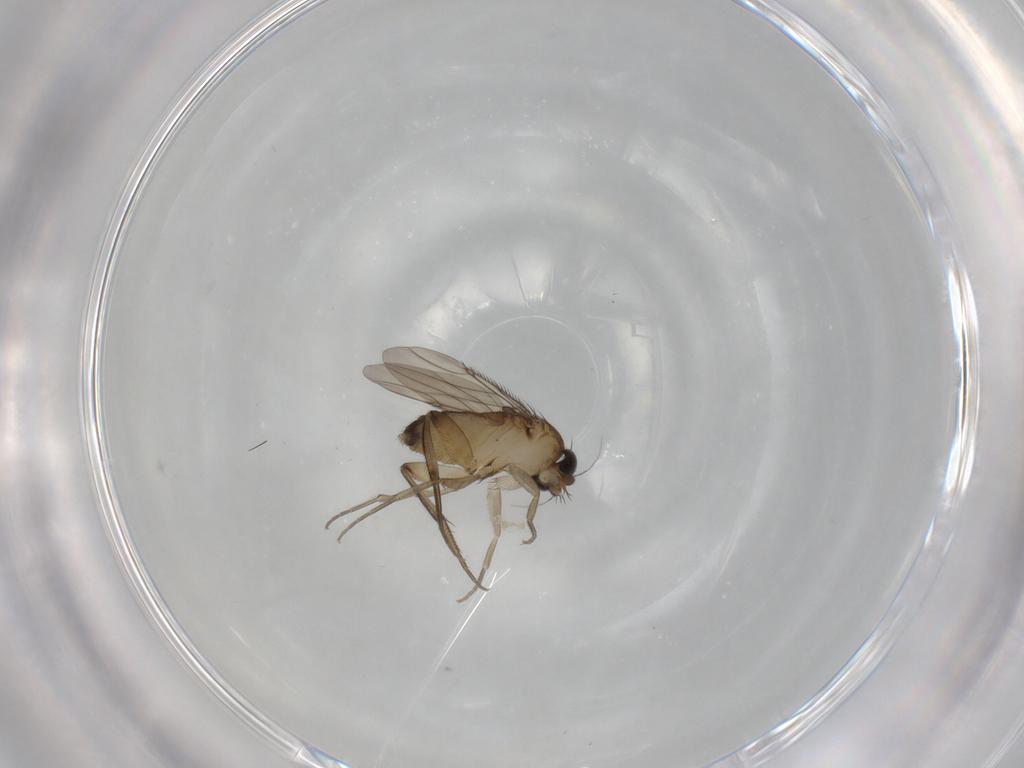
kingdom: Animalia
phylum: Arthropoda
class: Insecta
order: Diptera
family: Phoridae
